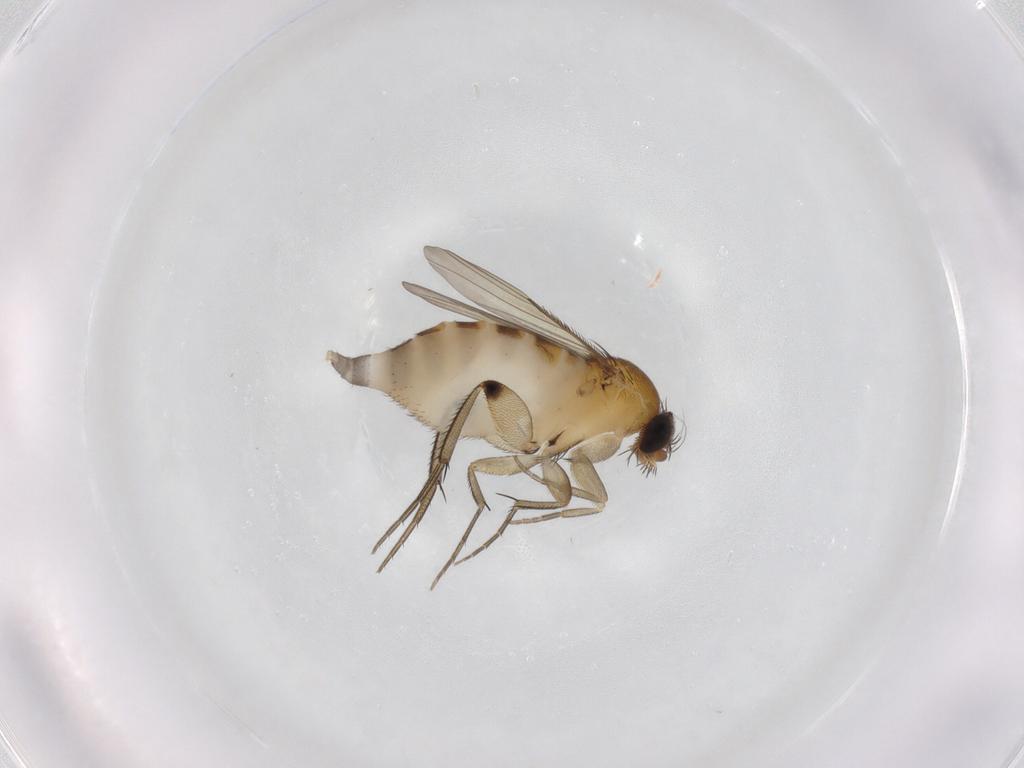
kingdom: Animalia
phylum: Arthropoda
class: Insecta
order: Diptera
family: Phoridae
